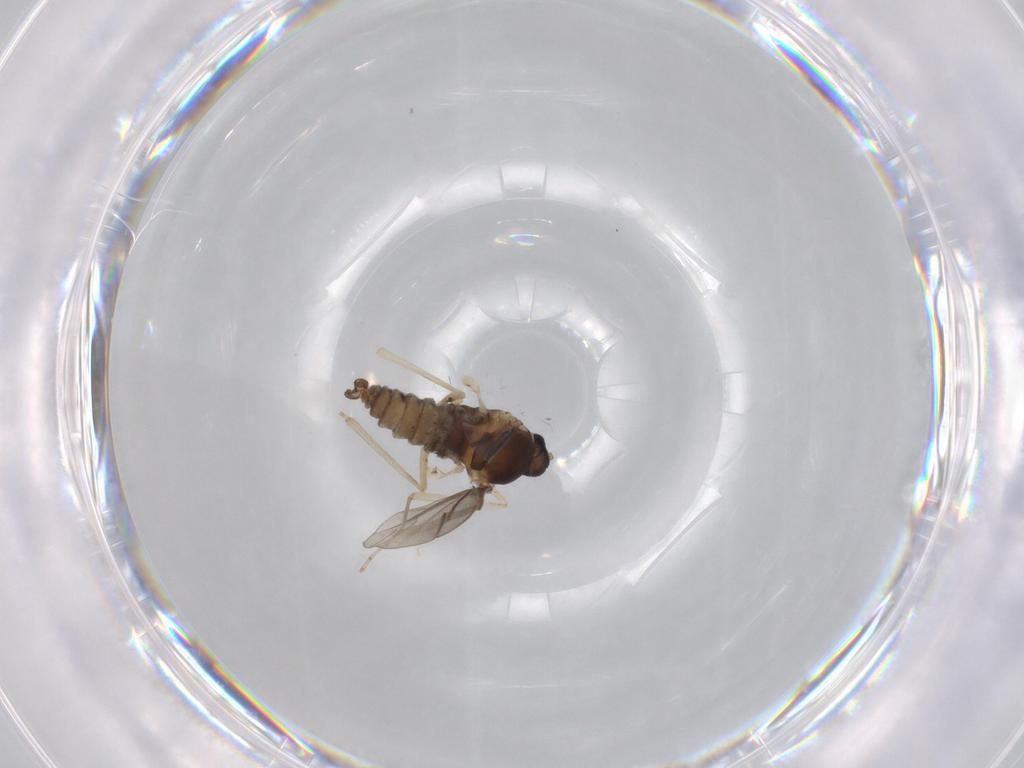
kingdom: Animalia
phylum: Arthropoda
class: Insecta
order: Diptera
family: Cecidomyiidae
